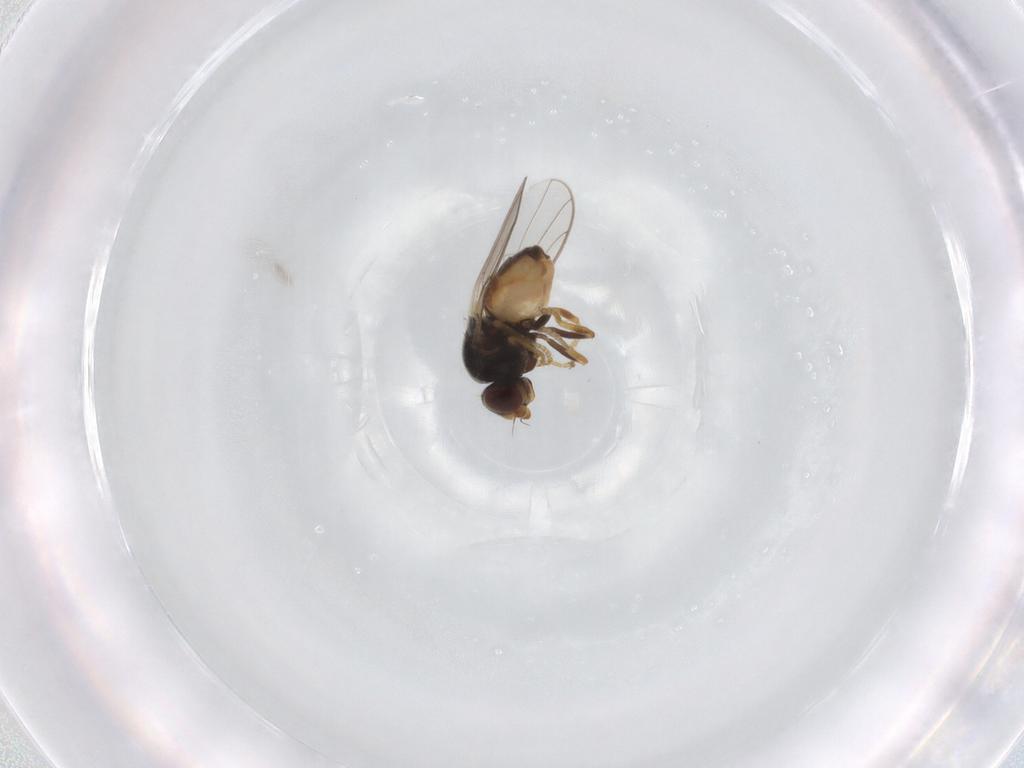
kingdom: Animalia
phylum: Arthropoda
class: Insecta
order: Diptera
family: Chloropidae
